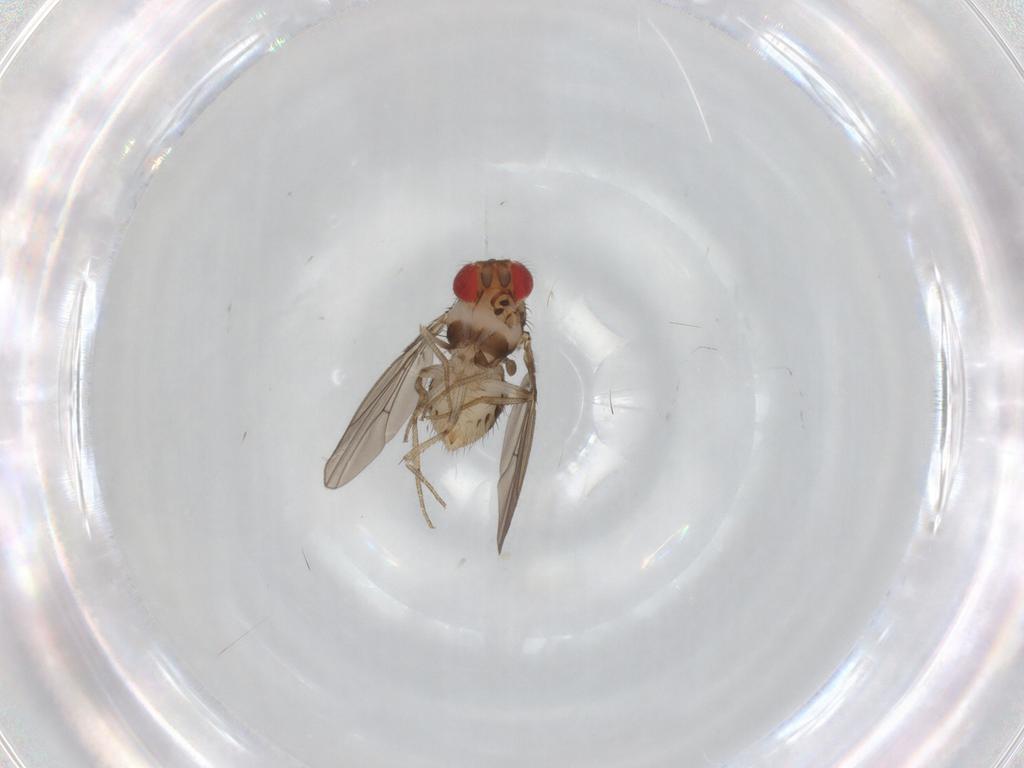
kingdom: Animalia
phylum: Arthropoda
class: Insecta
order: Diptera
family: Drosophilidae
